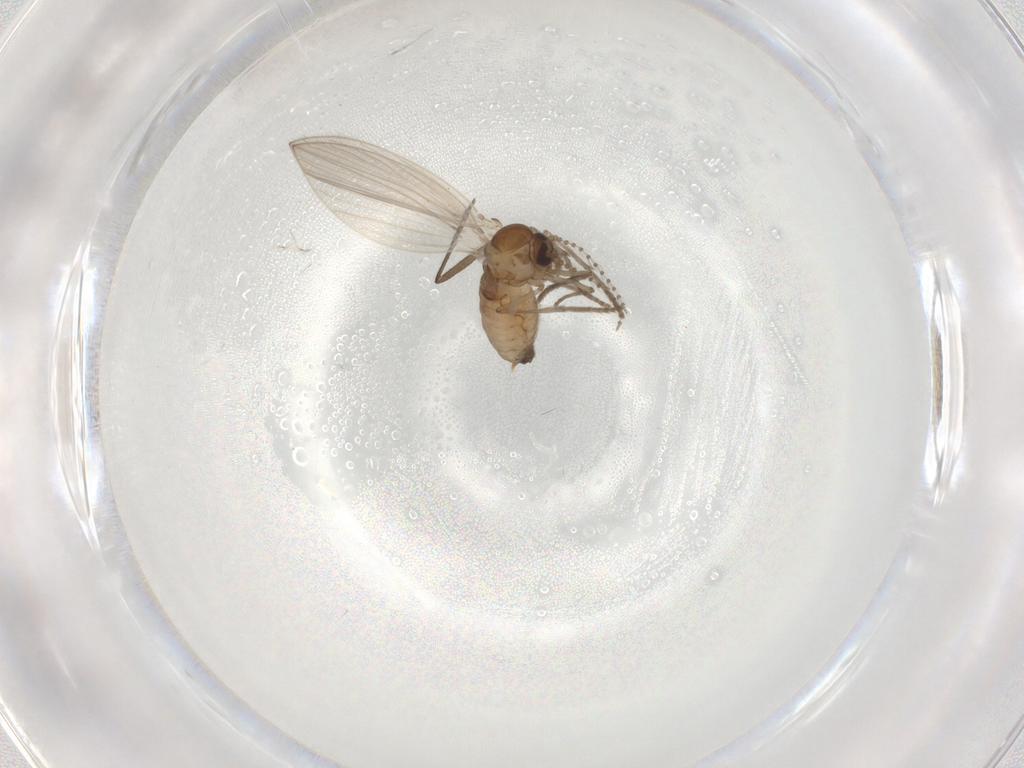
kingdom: Animalia
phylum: Arthropoda
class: Insecta
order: Diptera
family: Psychodidae
